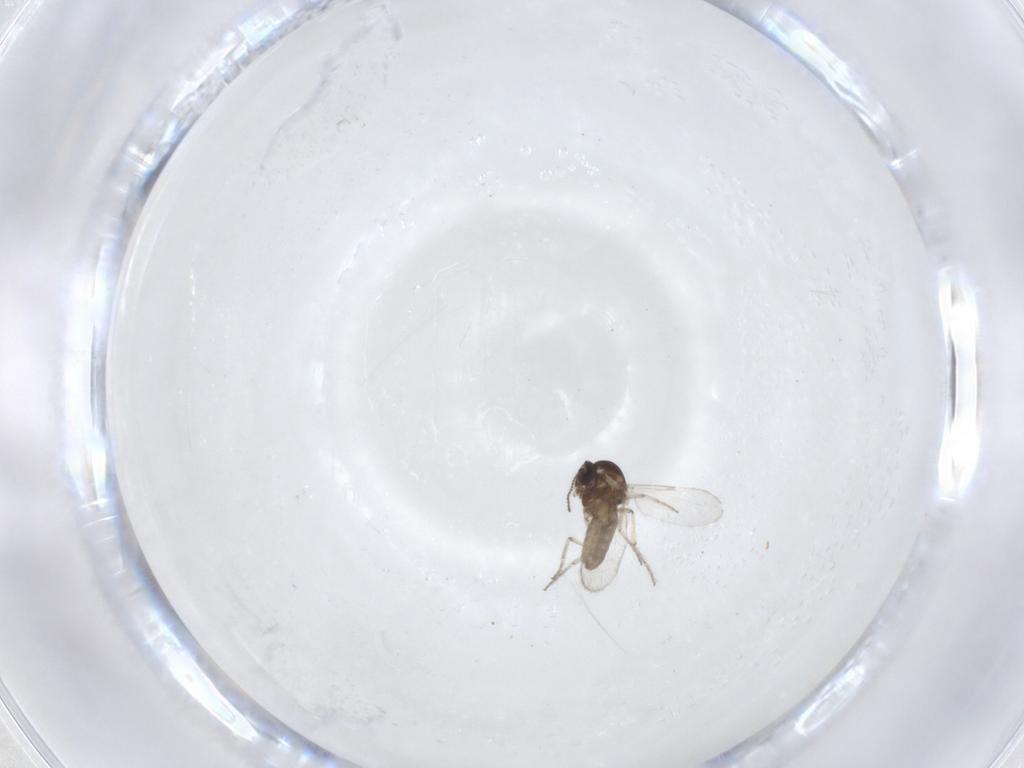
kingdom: Animalia
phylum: Arthropoda
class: Insecta
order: Diptera
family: Ceratopogonidae
